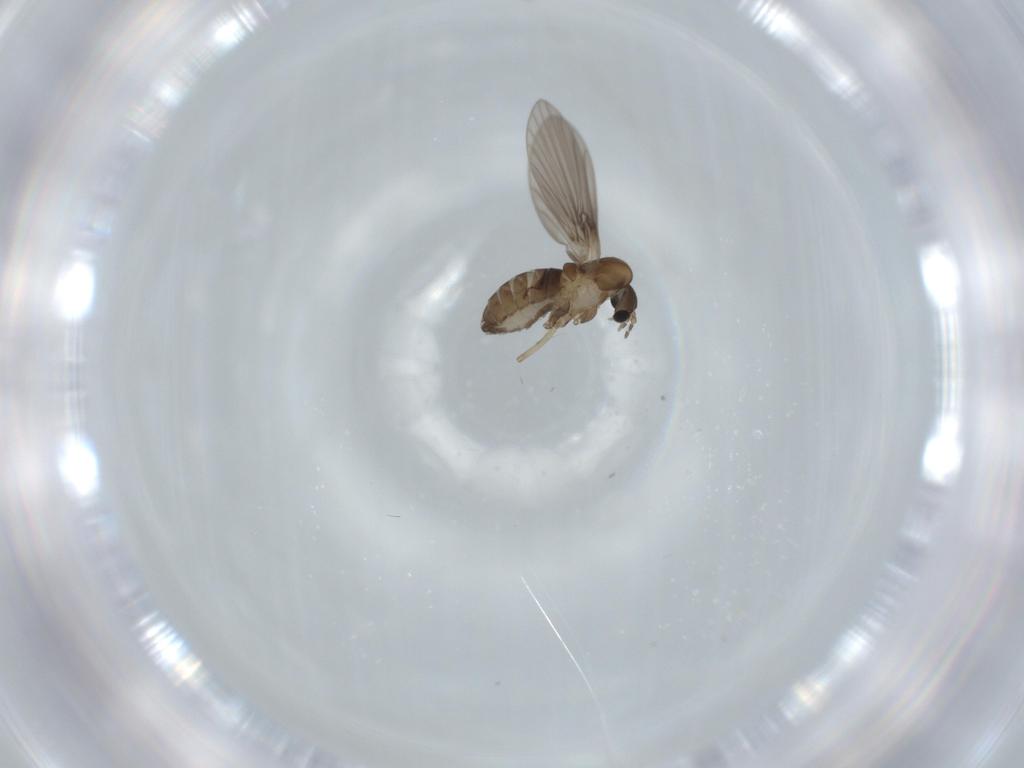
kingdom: Animalia
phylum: Arthropoda
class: Insecta
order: Diptera
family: Psychodidae
